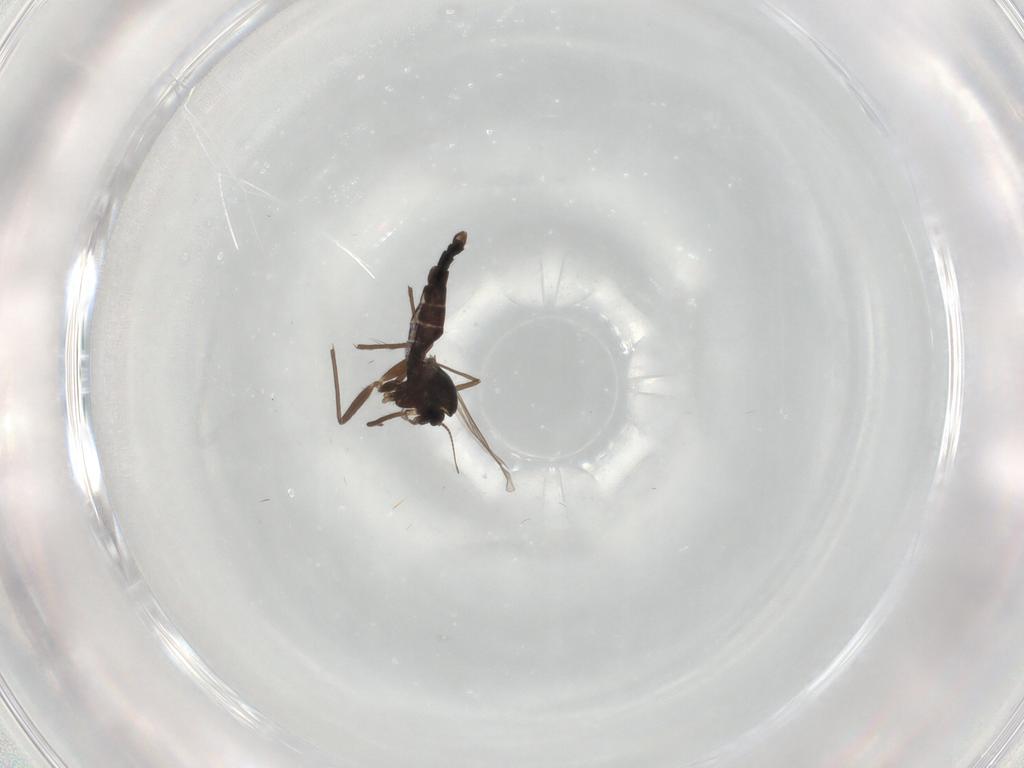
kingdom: Animalia
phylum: Arthropoda
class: Insecta
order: Diptera
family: Chironomidae
